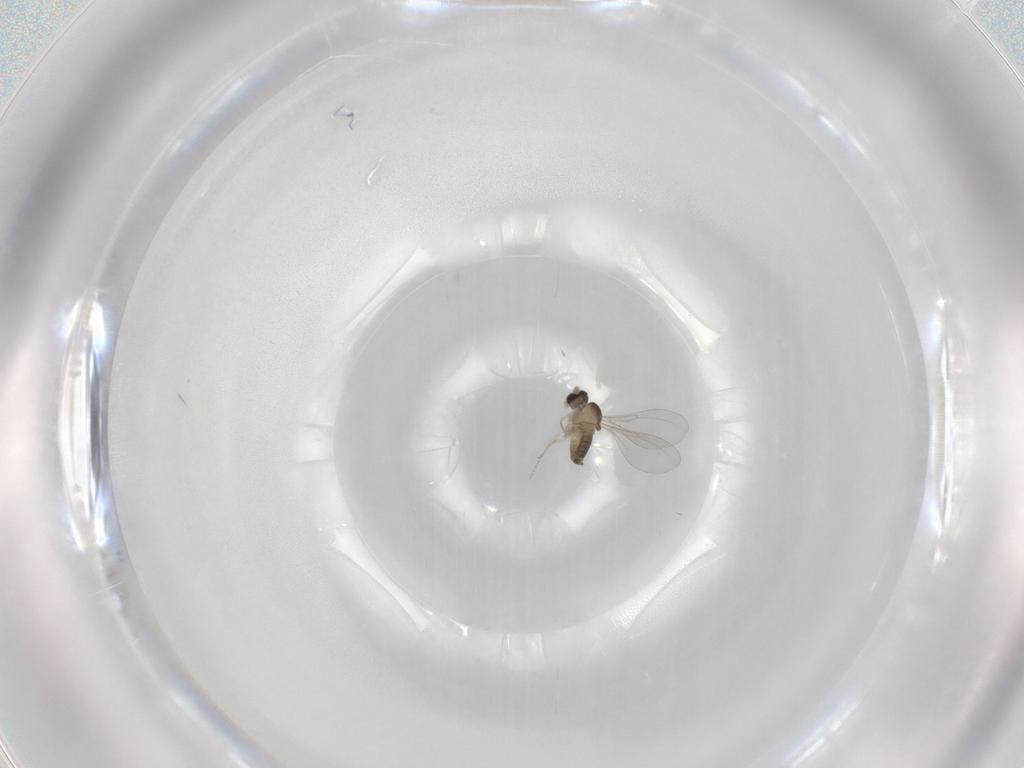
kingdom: Animalia
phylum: Arthropoda
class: Insecta
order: Diptera
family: Cecidomyiidae
